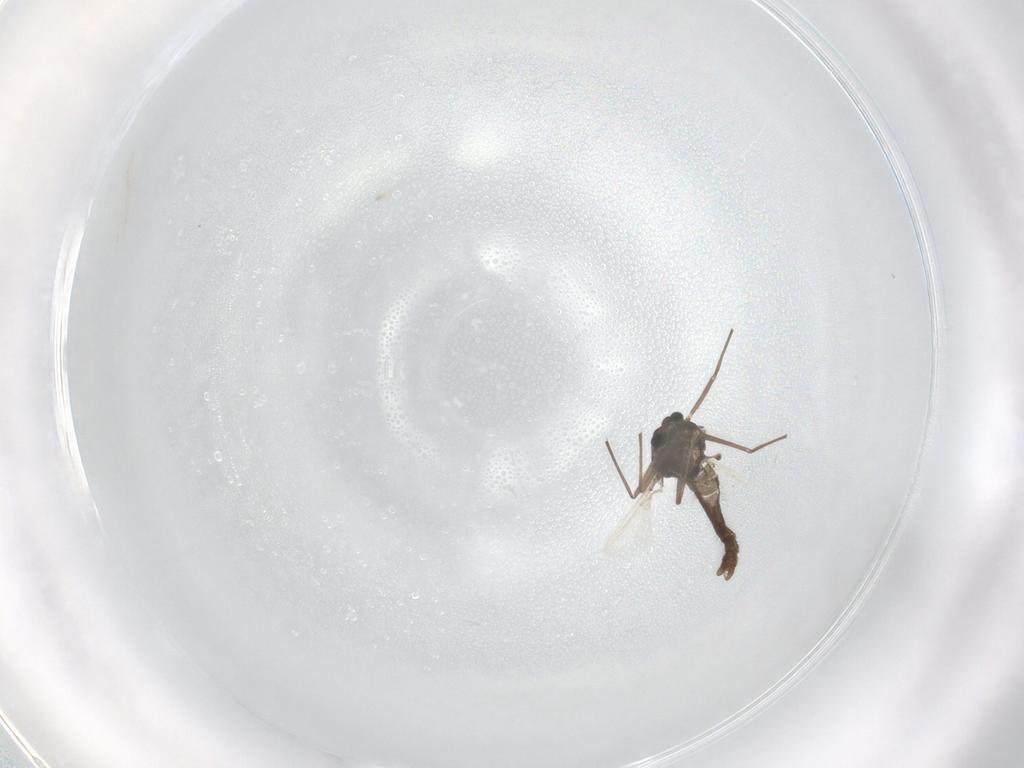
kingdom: Animalia
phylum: Arthropoda
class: Insecta
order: Diptera
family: Chironomidae
